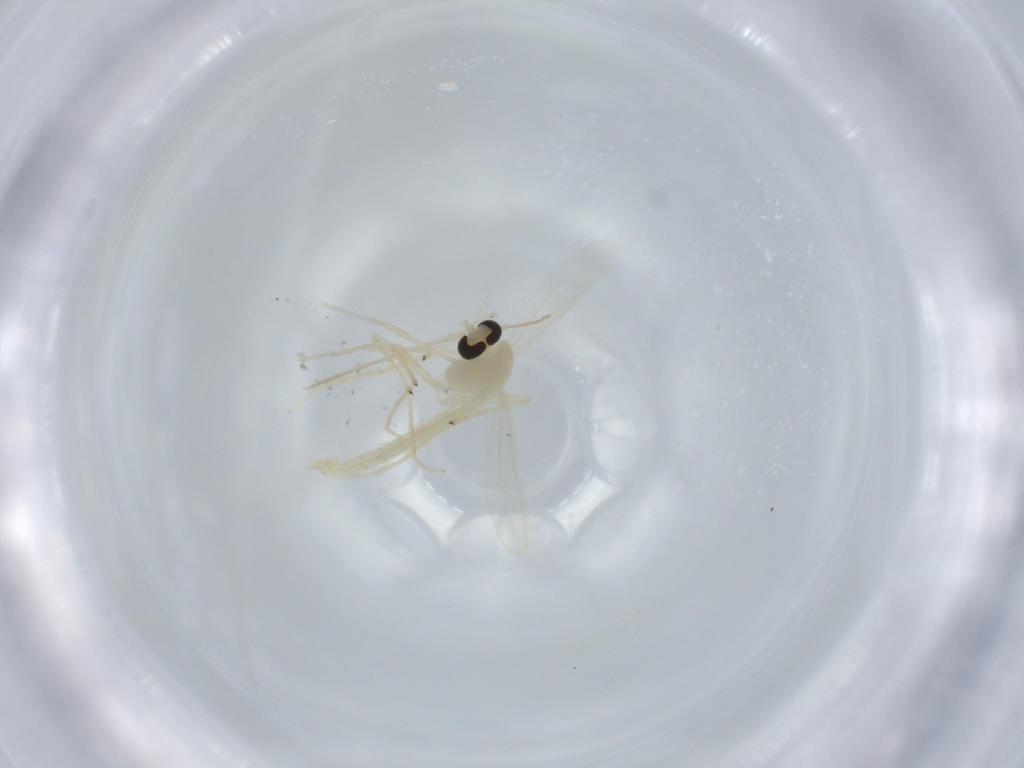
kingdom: Animalia
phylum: Arthropoda
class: Insecta
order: Diptera
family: Chironomidae
